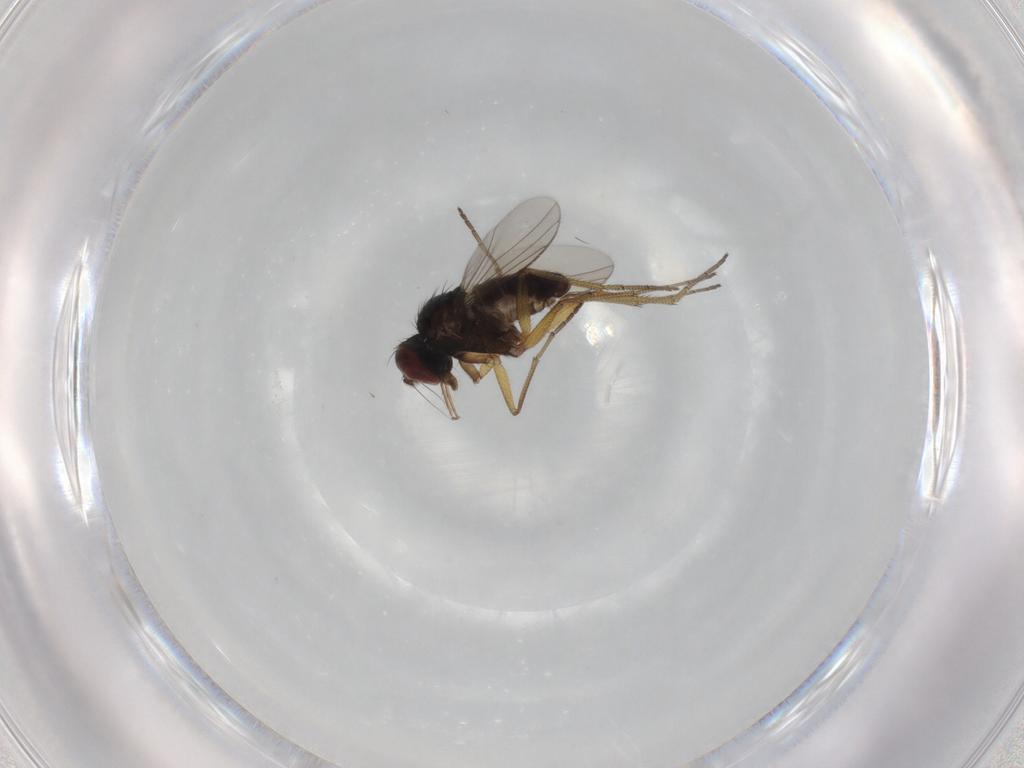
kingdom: Animalia
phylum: Arthropoda
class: Insecta
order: Diptera
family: Dolichopodidae
